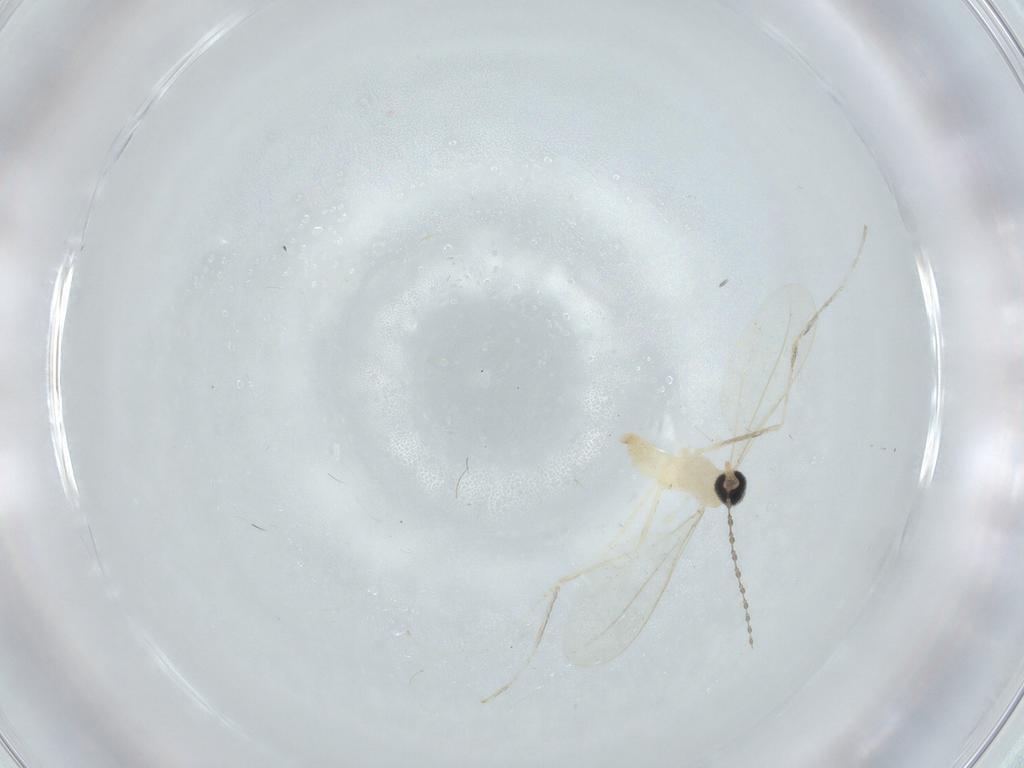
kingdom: Animalia
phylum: Arthropoda
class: Insecta
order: Diptera
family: Cecidomyiidae
